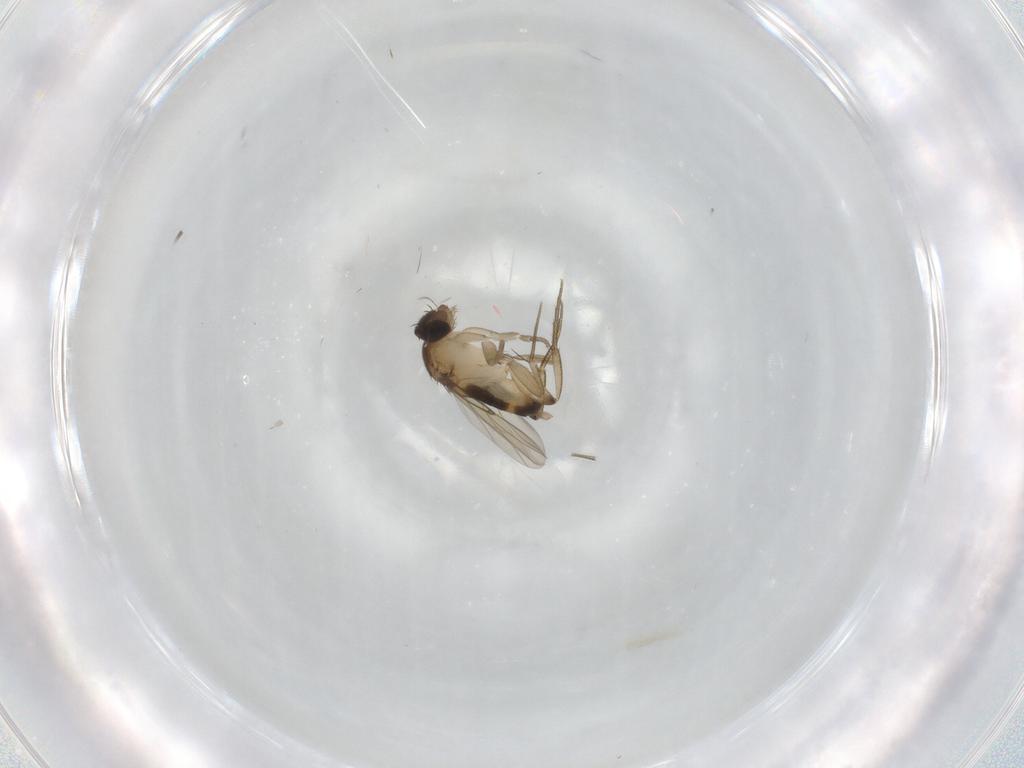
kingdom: Animalia
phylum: Arthropoda
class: Insecta
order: Diptera
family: Phoridae
